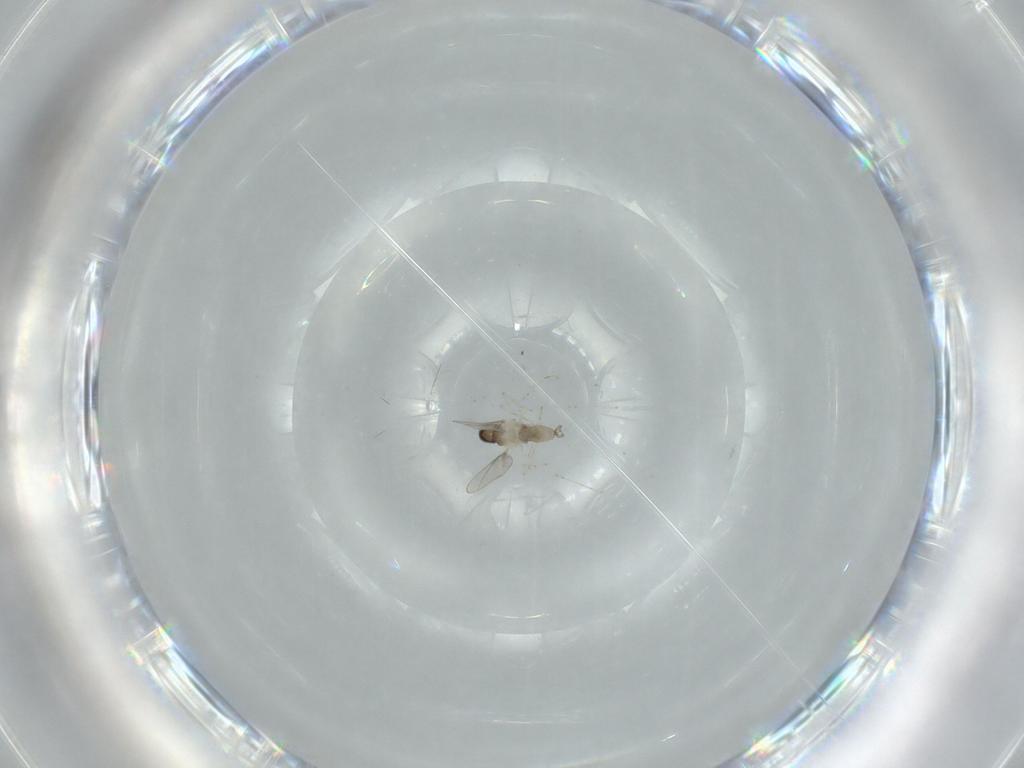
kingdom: Animalia
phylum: Arthropoda
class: Insecta
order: Diptera
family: Cecidomyiidae
